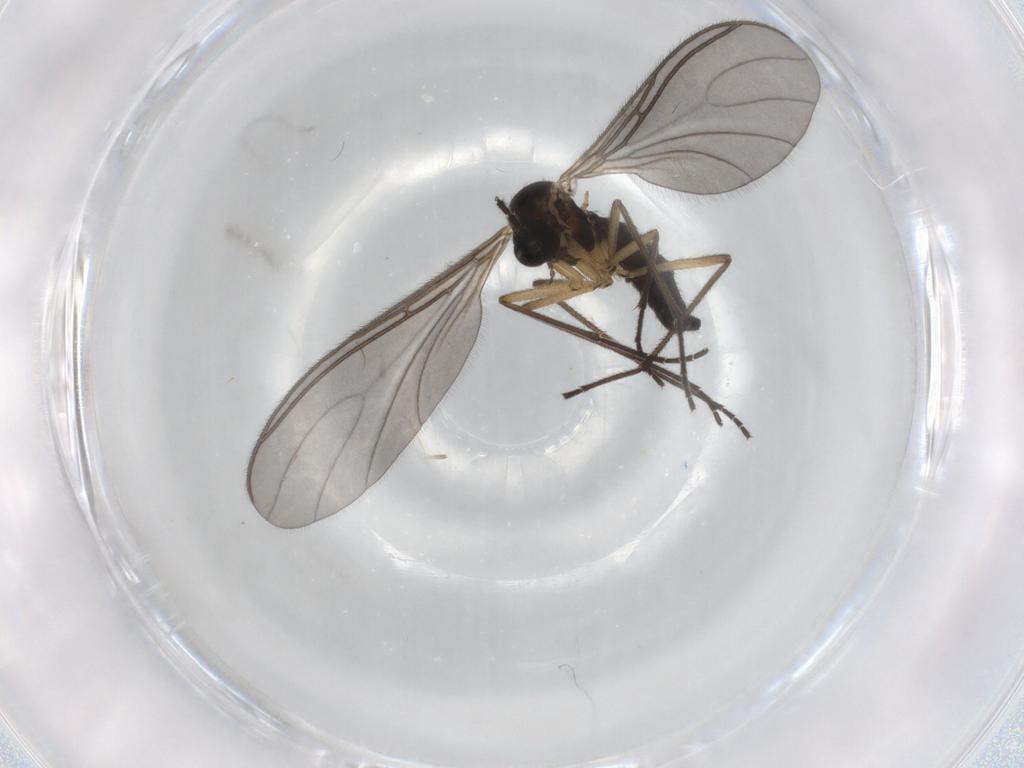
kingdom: Animalia
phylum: Arthropoda
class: Insecta
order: Diptera
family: Sciaridae
